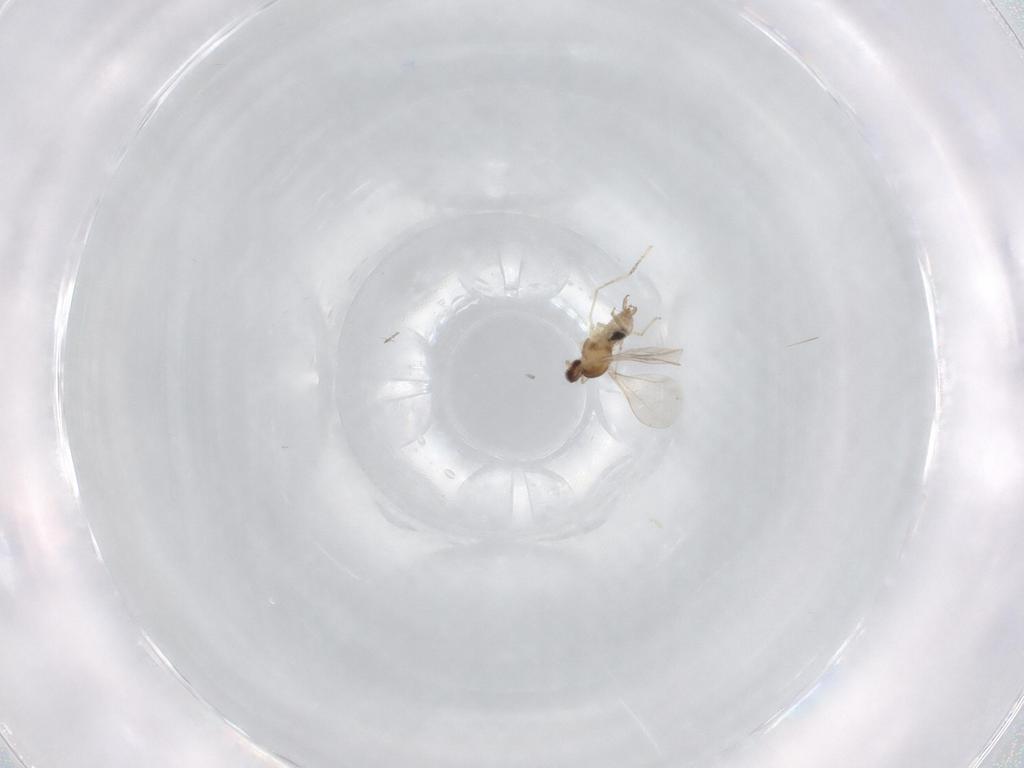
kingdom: Animalia
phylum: Arthropoda
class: Insecta
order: Diptera
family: Chironomidae
